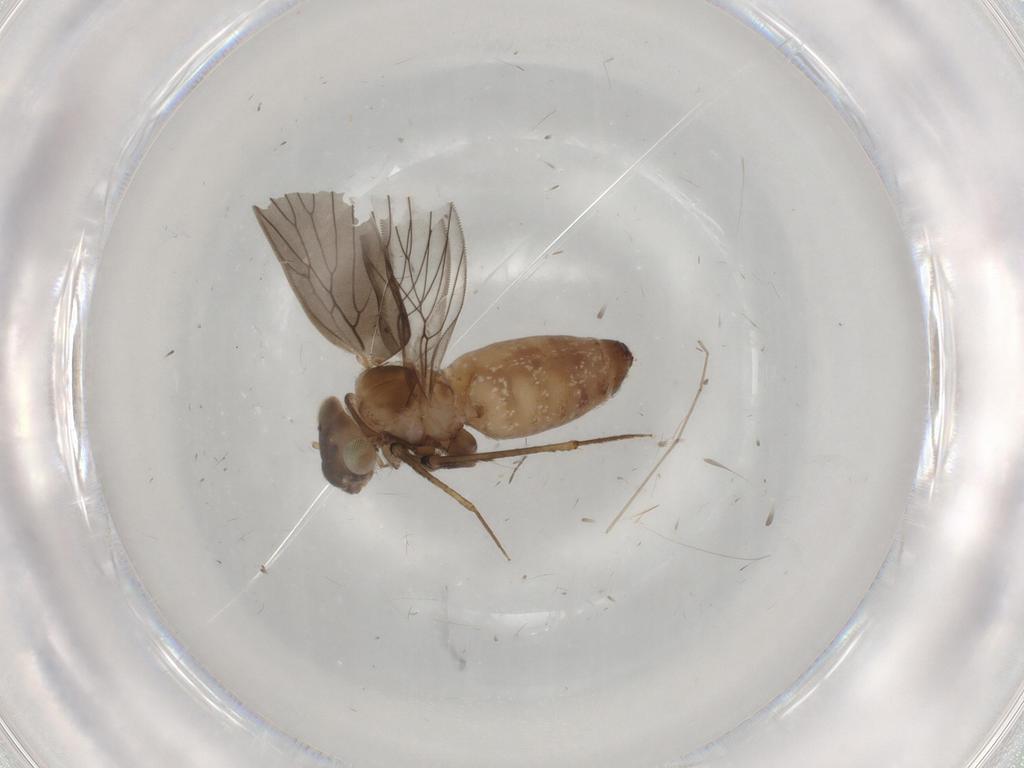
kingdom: Animalia
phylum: Arthropoda
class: Insecta
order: Psocodea
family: Lepidopsocidae
